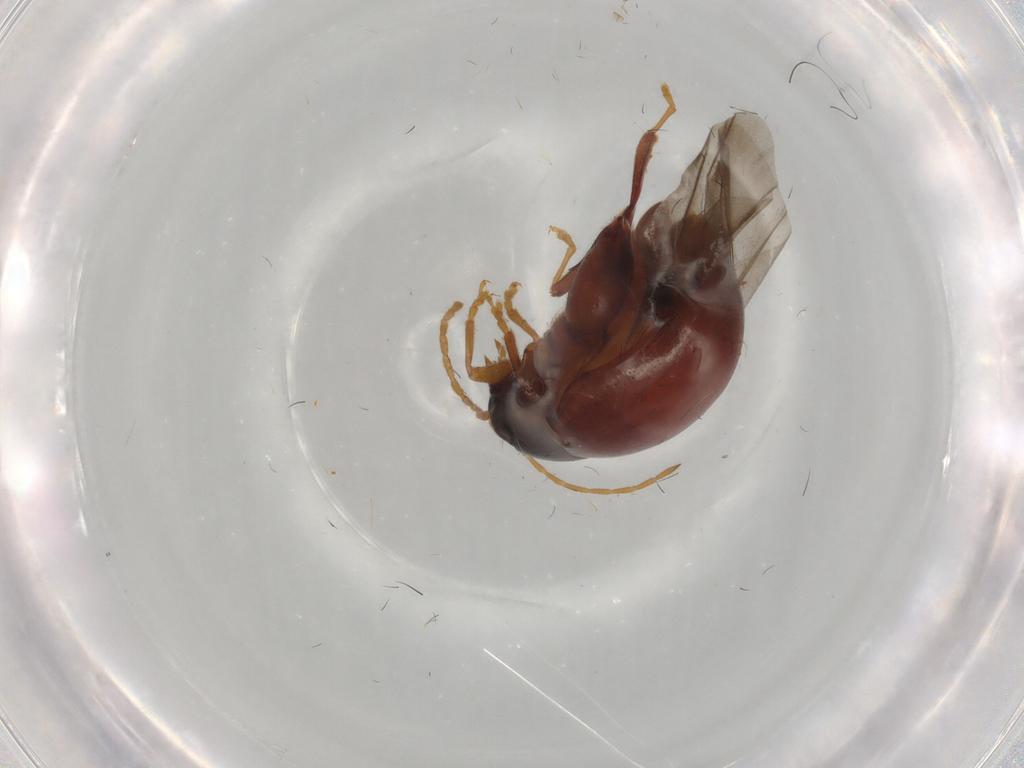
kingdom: Animalia
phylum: Arthropoda
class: Insecta
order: Coleoptera
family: Chrysomelidae
